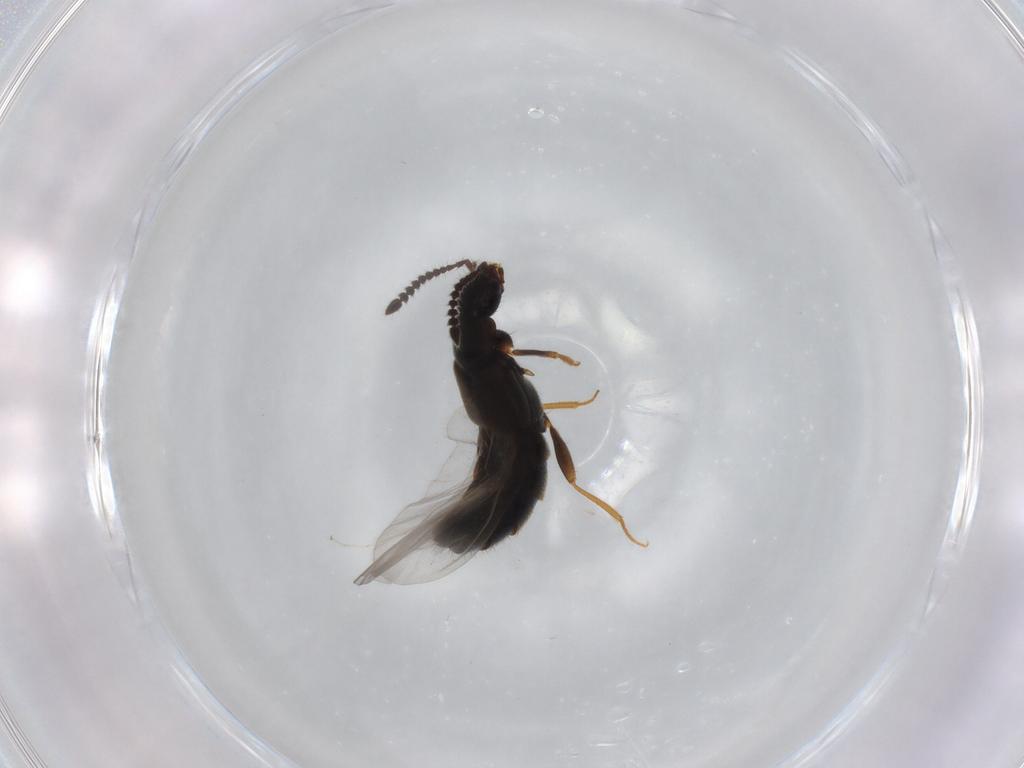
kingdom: Animalia
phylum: Arthropoda
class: Insecta
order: Coleoptera
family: Staphylinidae
